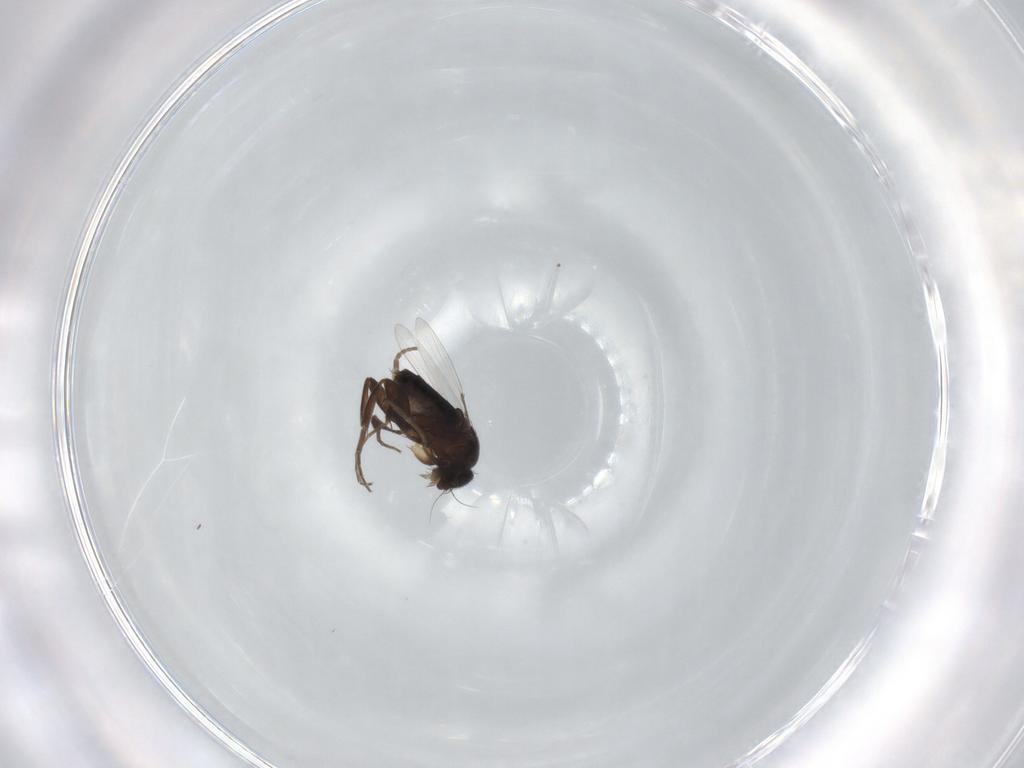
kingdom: Animalia
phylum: Arthropoda
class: Insecta
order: Diptera
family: Phoridae
